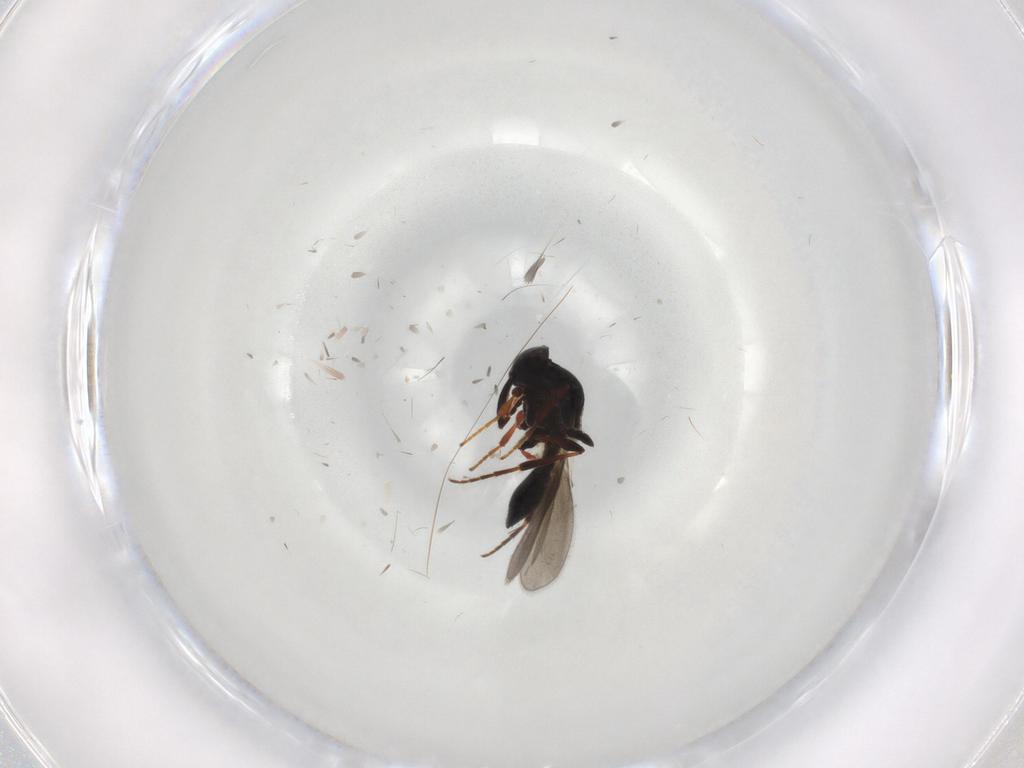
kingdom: Animalia
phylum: Arthropoda
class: Insecta
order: Hymenoptera
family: Platygastridae
